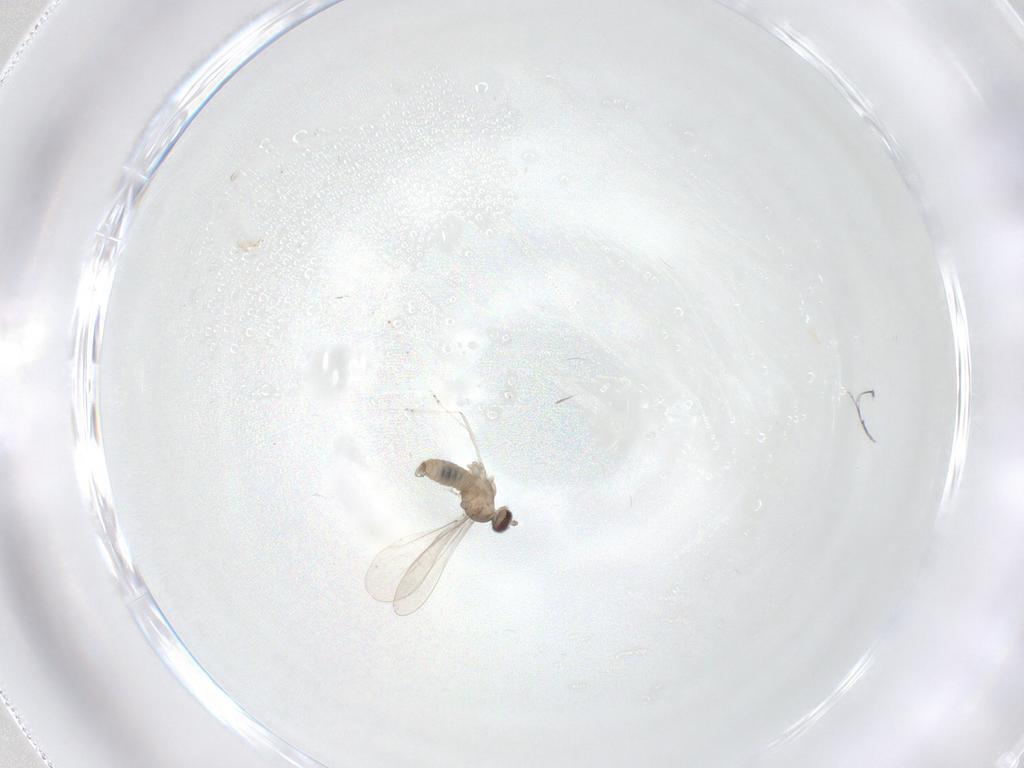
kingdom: Animalia
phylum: Arthropoda
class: Insecta
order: Diptera
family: Cecidomyiidae
